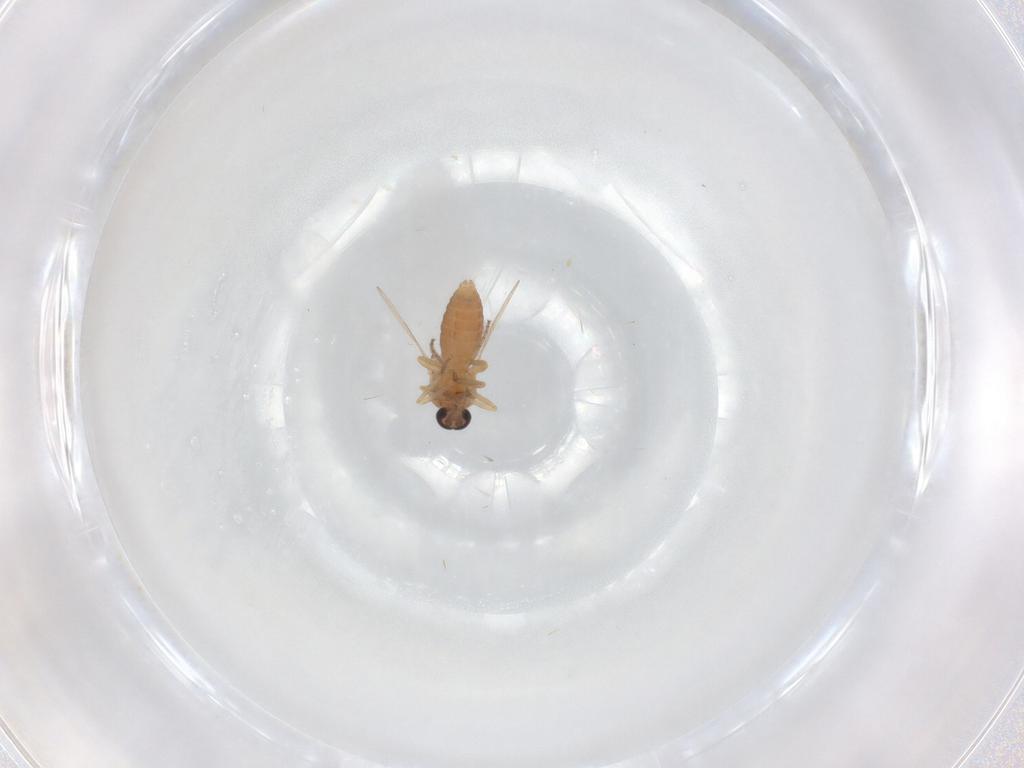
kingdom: Animalia
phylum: Arthropoda
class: Insecta
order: Diptera
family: Ceratopogonidae
